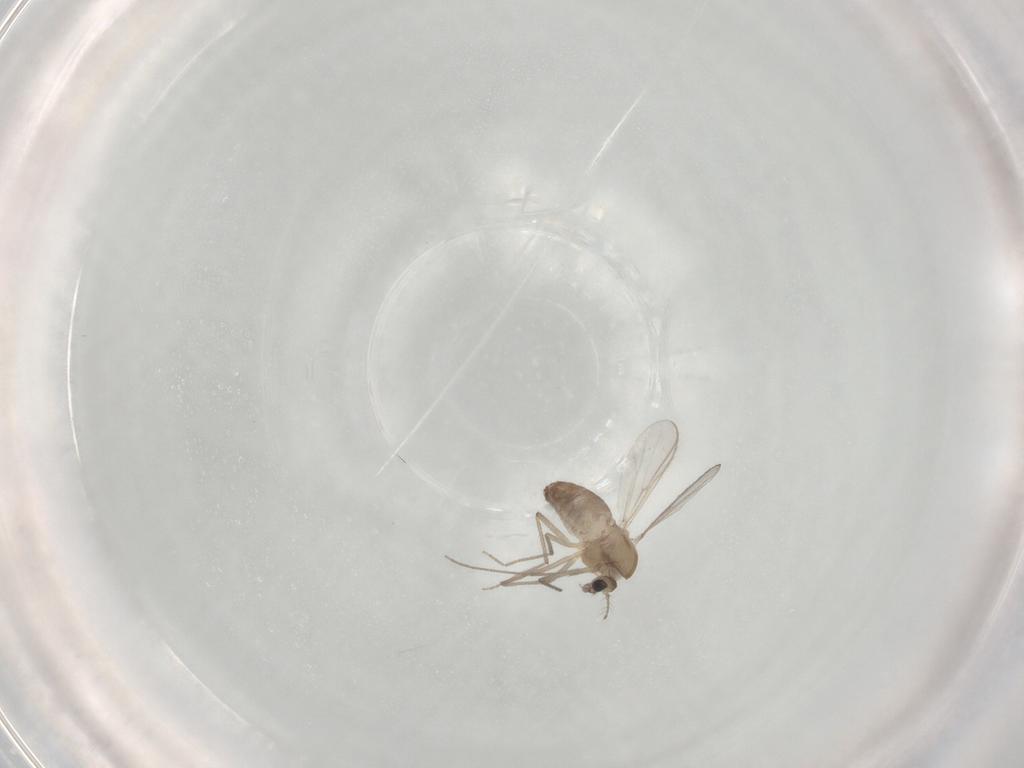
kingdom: Animalia
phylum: Arthropoda
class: Insecta
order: Diptera
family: Chironomidae
